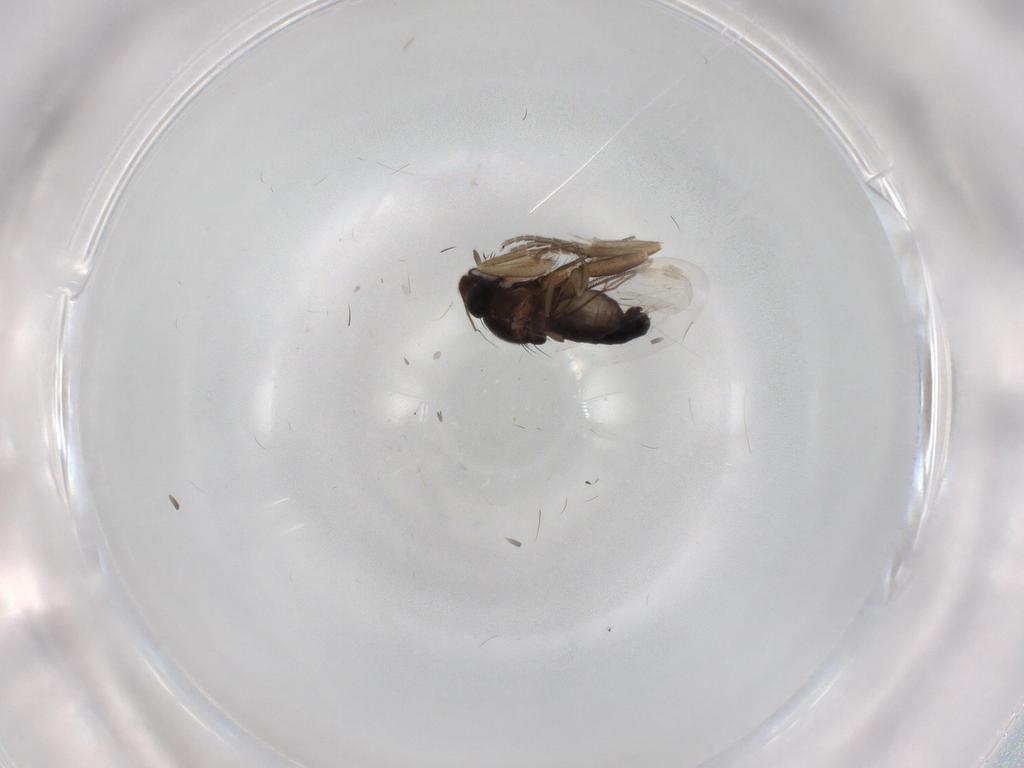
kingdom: Animalia
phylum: Arthropoda
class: Insecta
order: Diptera
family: Phoridae
